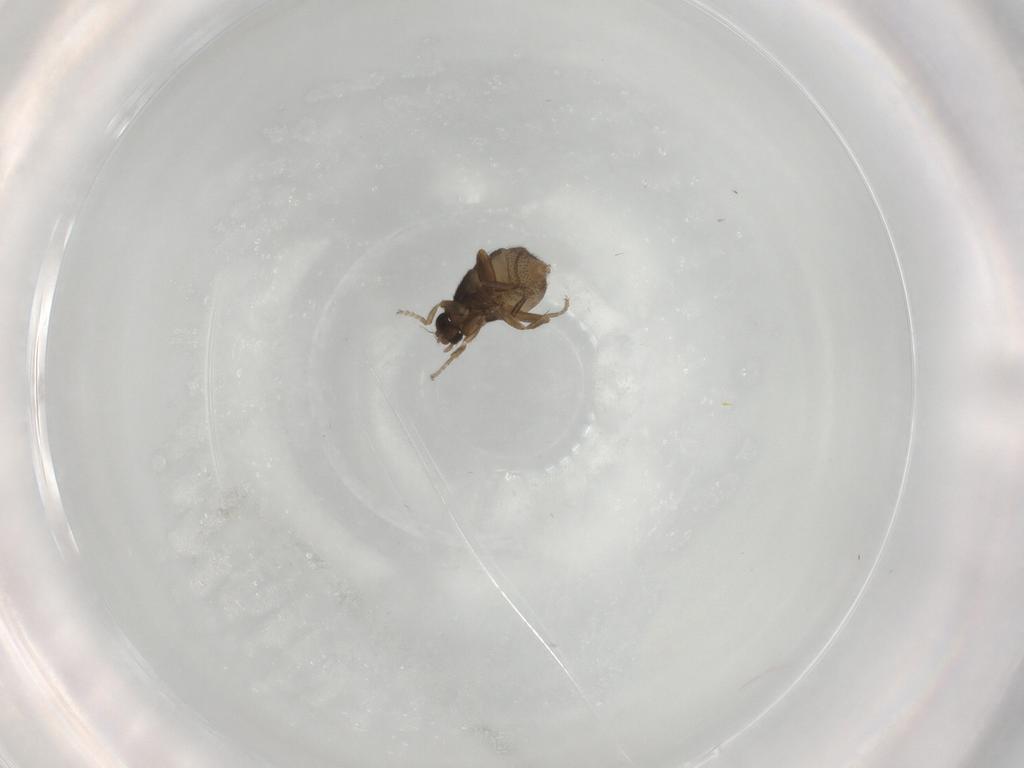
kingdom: Animalia
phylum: Arthropoda
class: Insecta
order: Diptera
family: Phoridae
